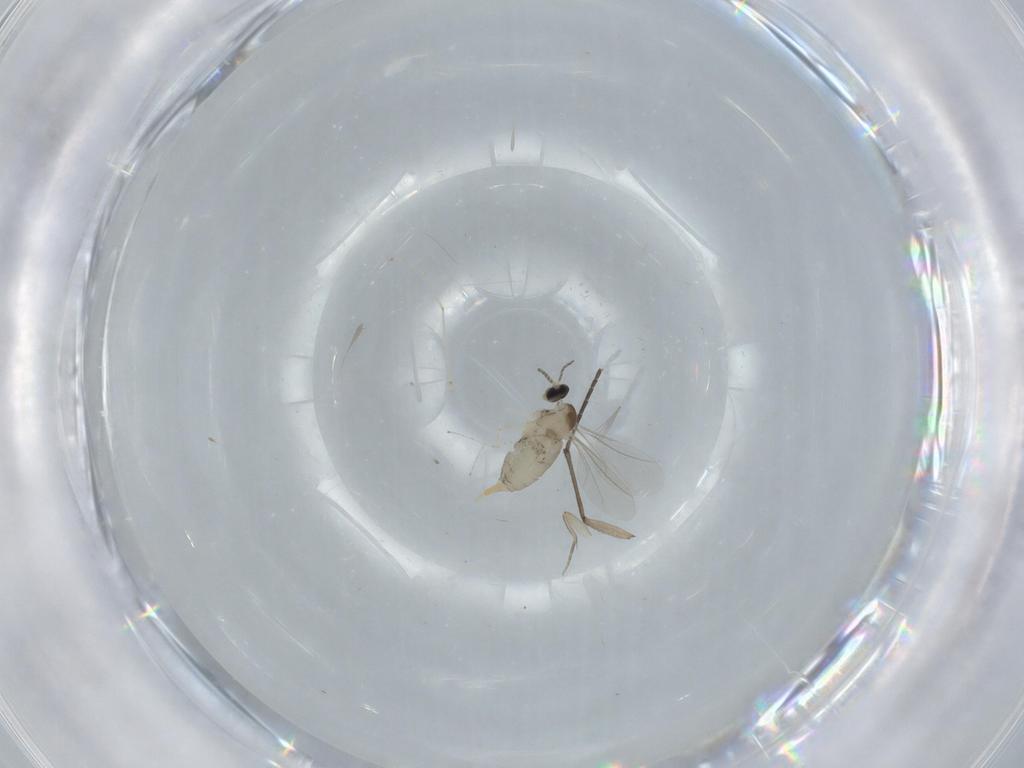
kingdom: Animalia
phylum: Arthropoda
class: Insecta
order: Diptera
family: Cecidomyiidae
